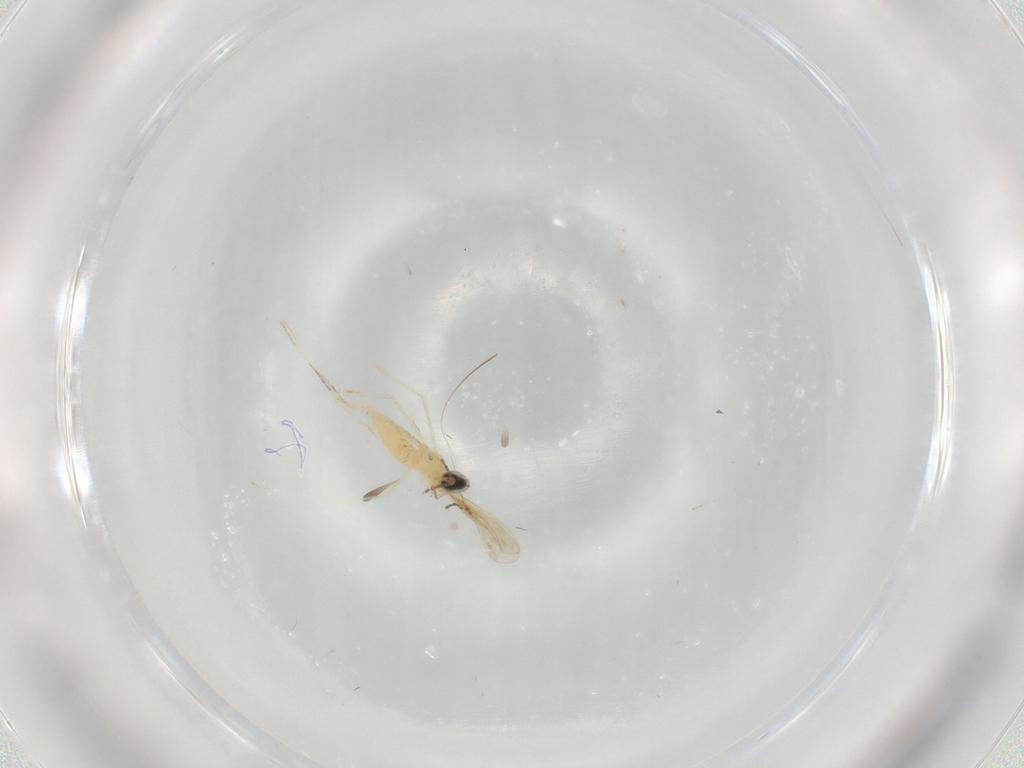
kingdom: Animalia
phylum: Arthropoda
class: Insecta
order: Diptera
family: Cecidomyiidae
